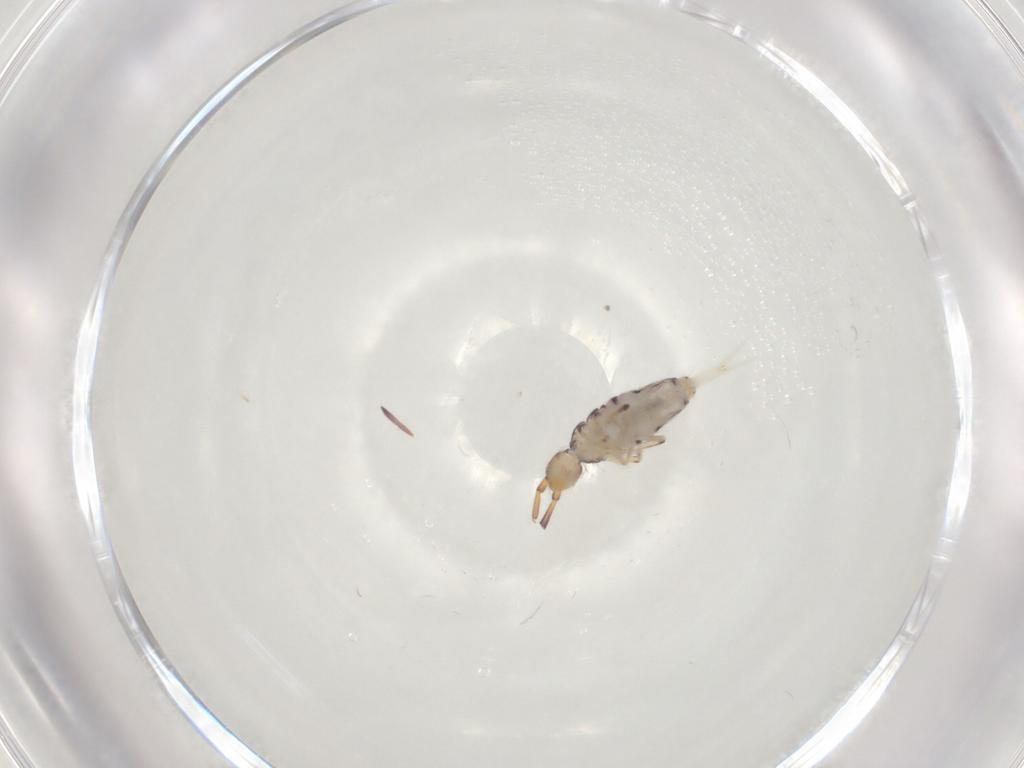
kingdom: Animalia
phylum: Arthropoda
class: Collembola
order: Entomobryomorpha
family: Entomobryidae
